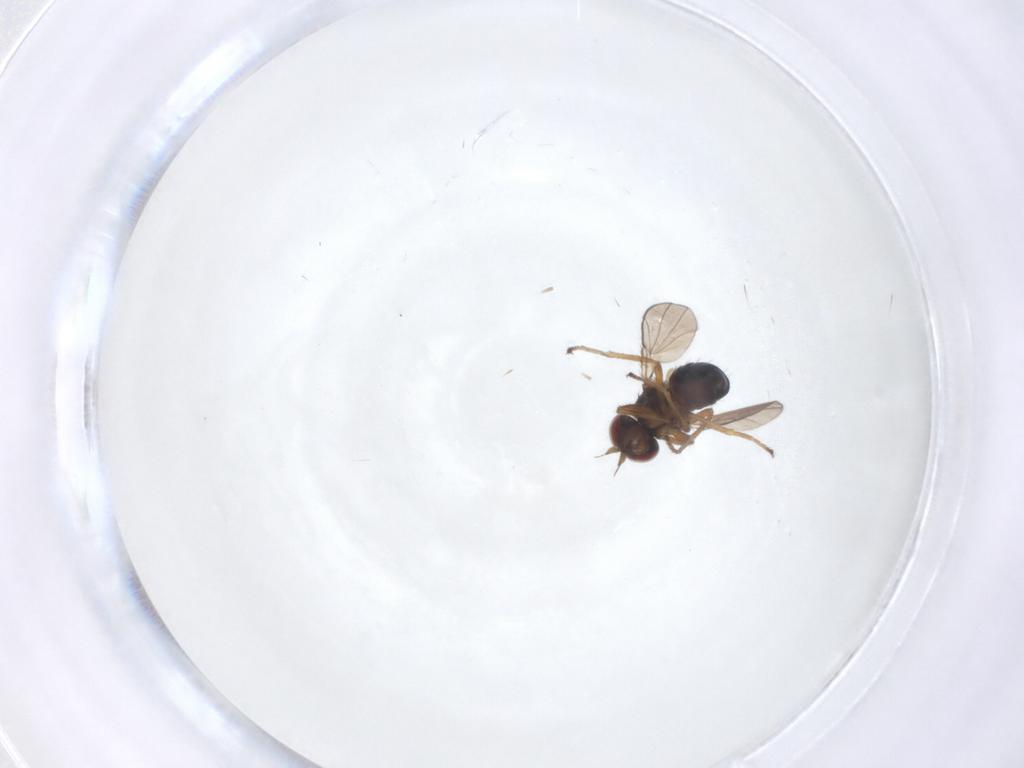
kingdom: Animalia
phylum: Arthropoda
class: Insecta
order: Diptera
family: Ephydridae
